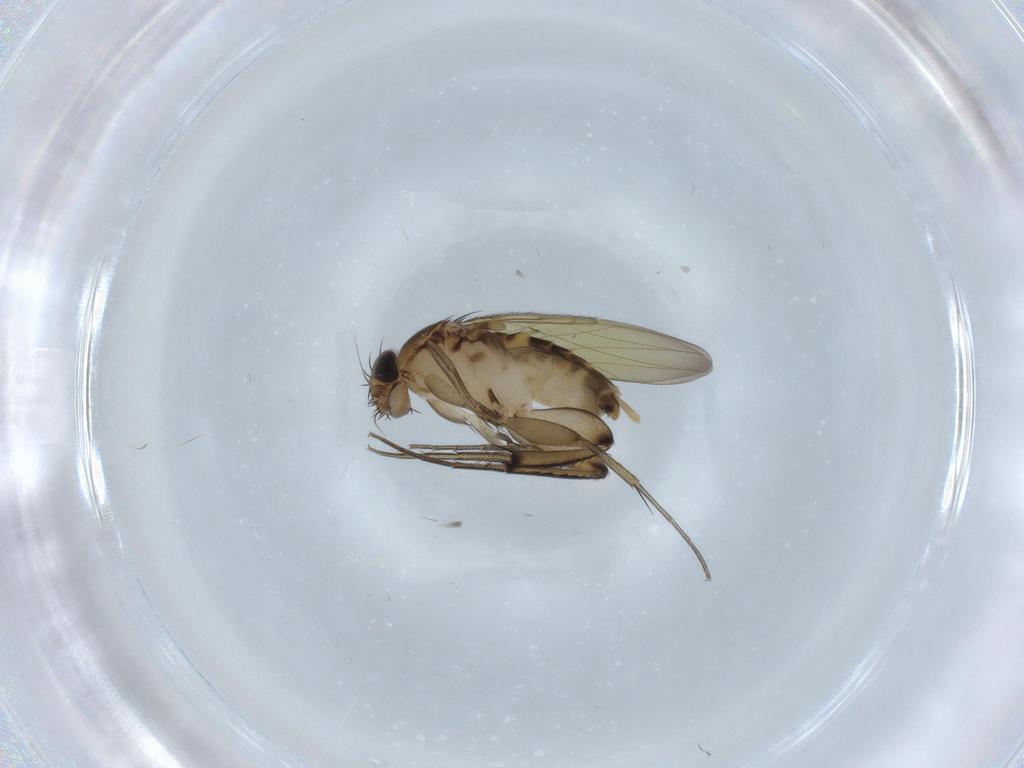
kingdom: Animalia
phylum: Arthropoda
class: Insecta
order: Diptera
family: Phoridae
